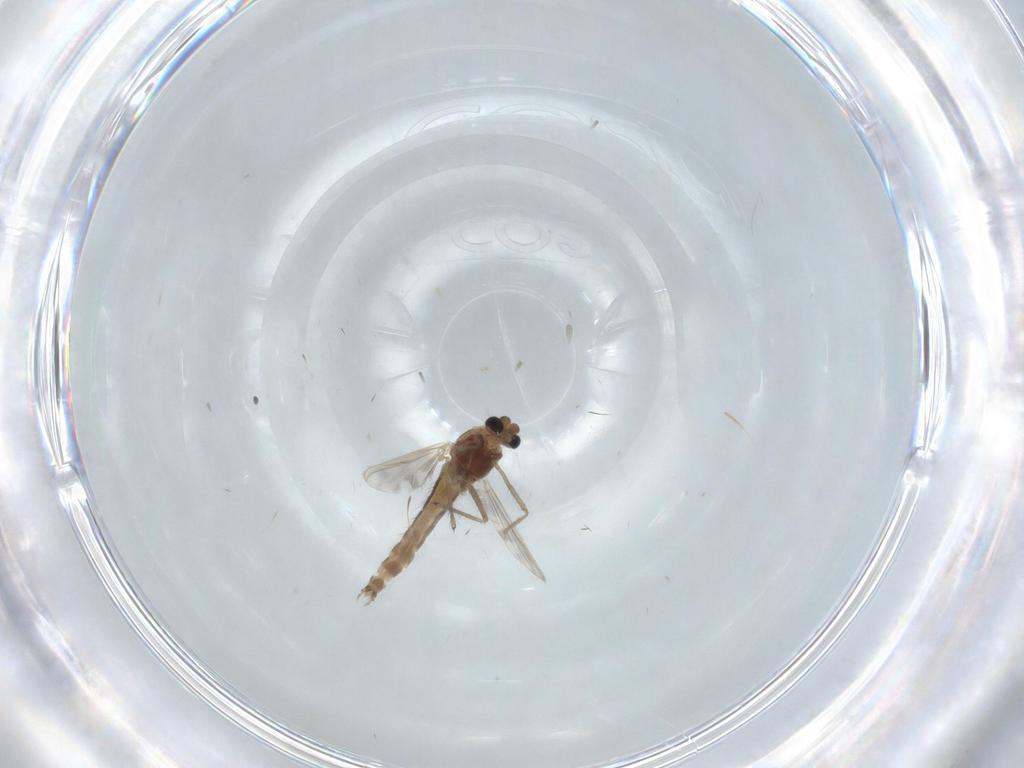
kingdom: Animalia
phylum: Arthropoda
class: Insecta
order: Diptera
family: Chironomidae
